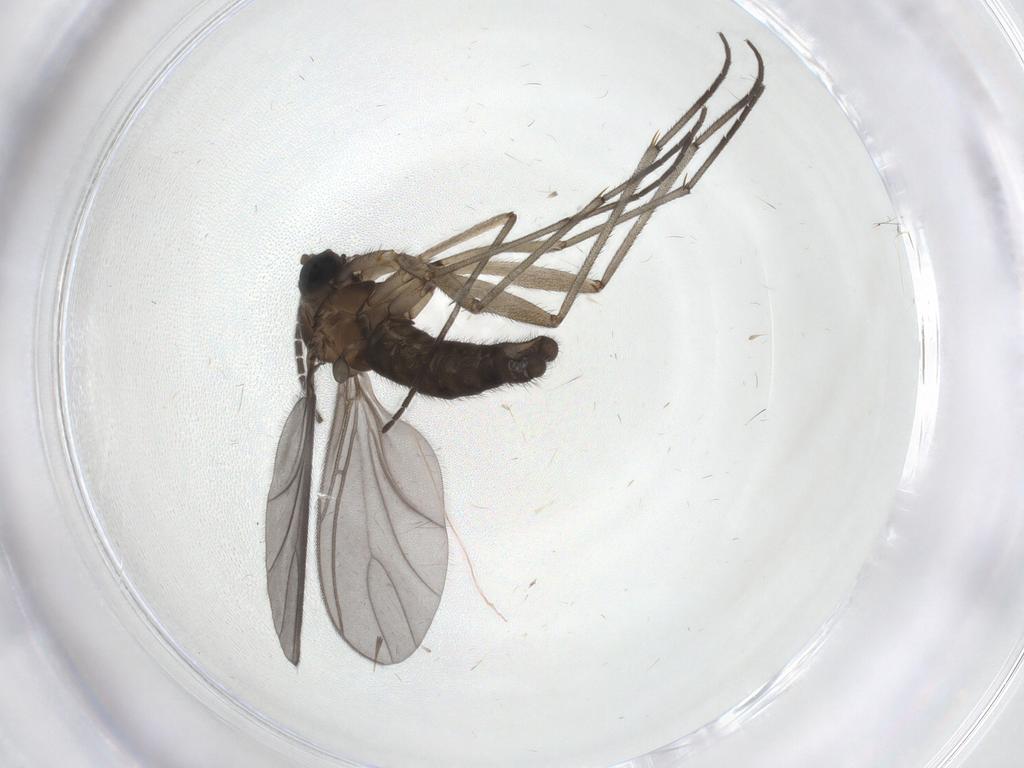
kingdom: Animalia
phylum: Arthropoda
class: Insecta
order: Diptera
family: Sciaridae
